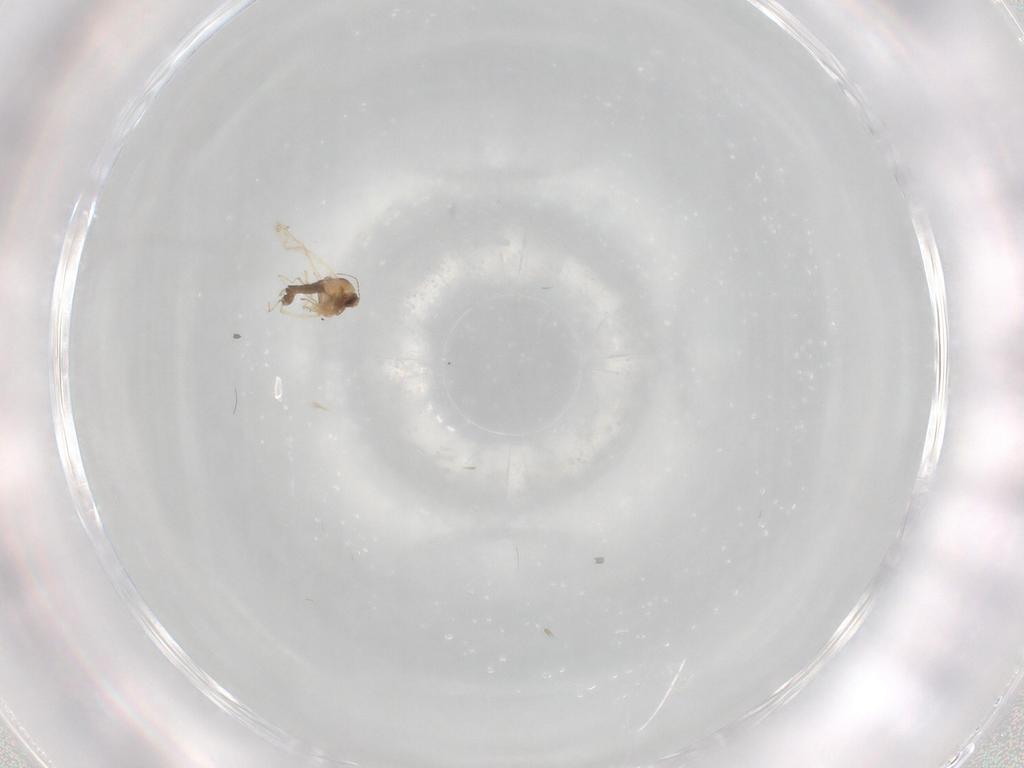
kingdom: Animalia
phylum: Arthropoda
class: Insecta
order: Diptera
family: Chironomidae
